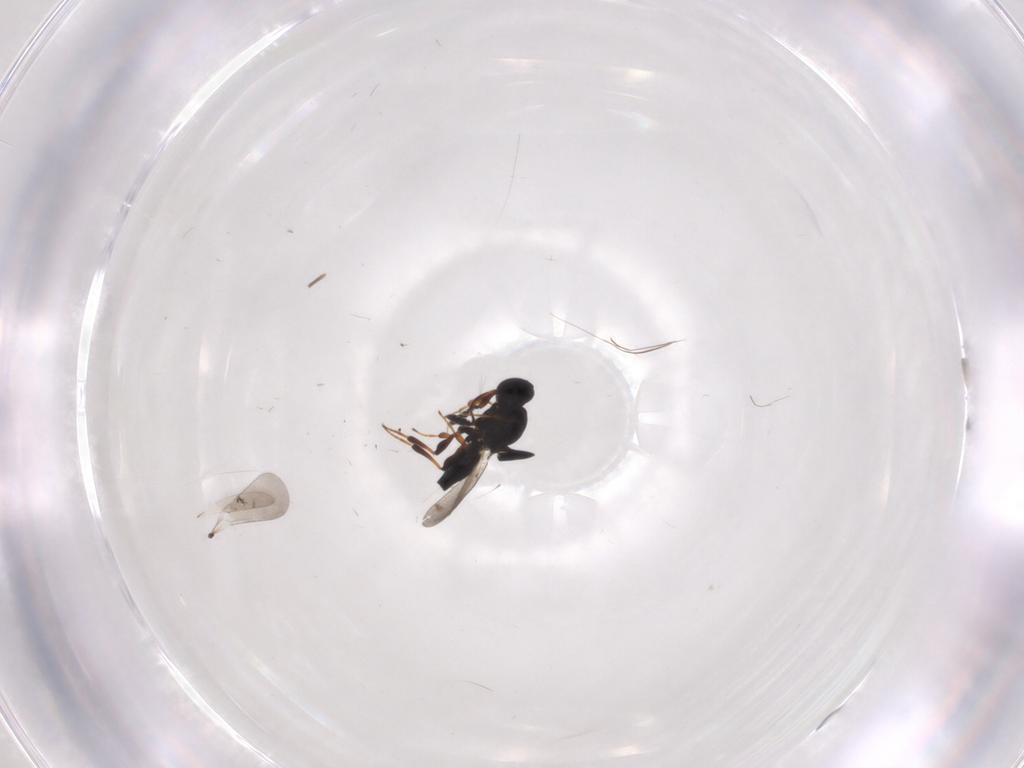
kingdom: Animalia
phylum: Arthropoda
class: Insecta
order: Hymenoptera
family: Platygastridae
